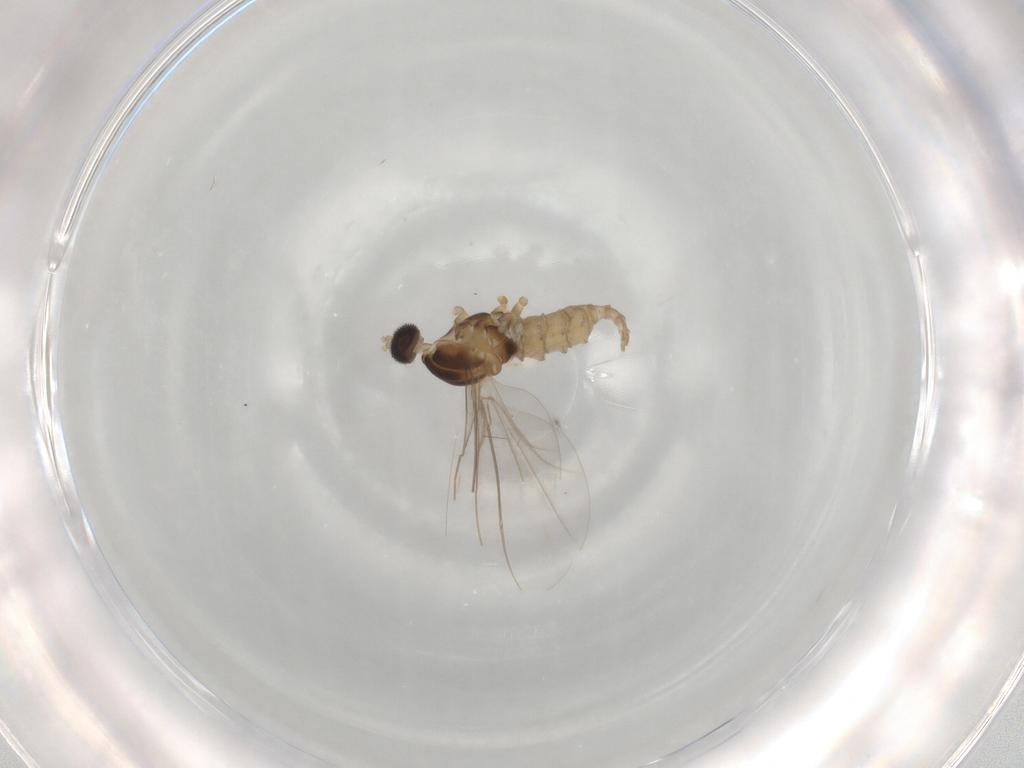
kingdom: Animalia
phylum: Arthropoda
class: Insecta
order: Diptera
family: Cecidomyiidae
